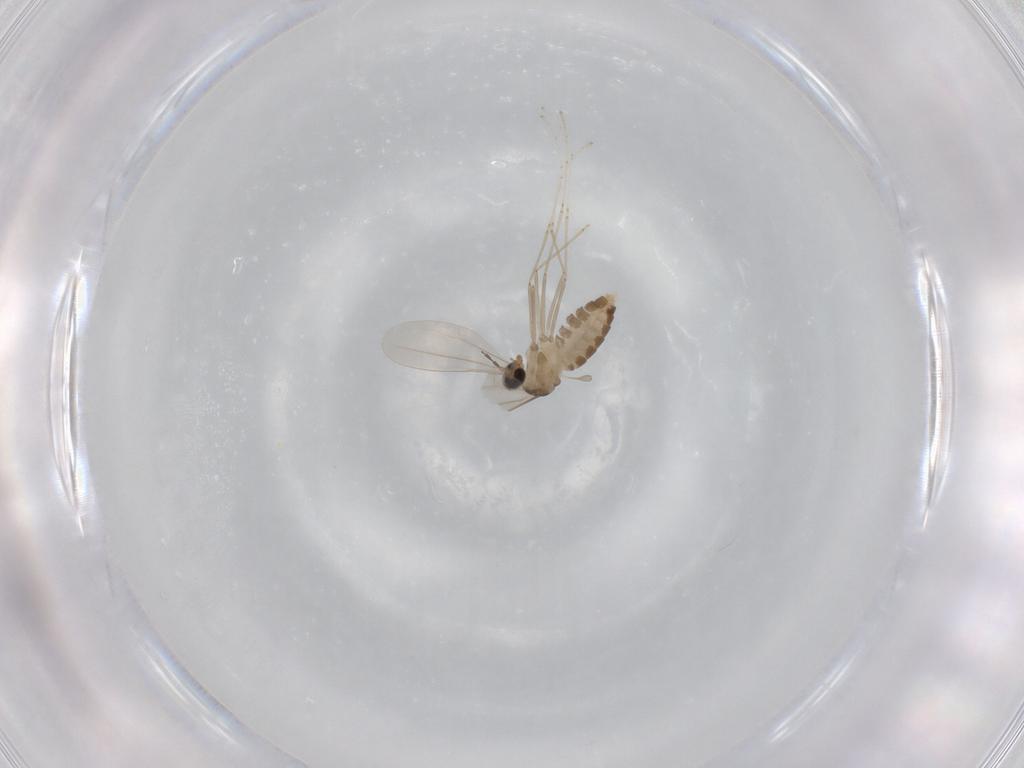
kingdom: Animalia
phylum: Arthropoda
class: Insecta
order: Diptera
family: Cecidomyiidae
